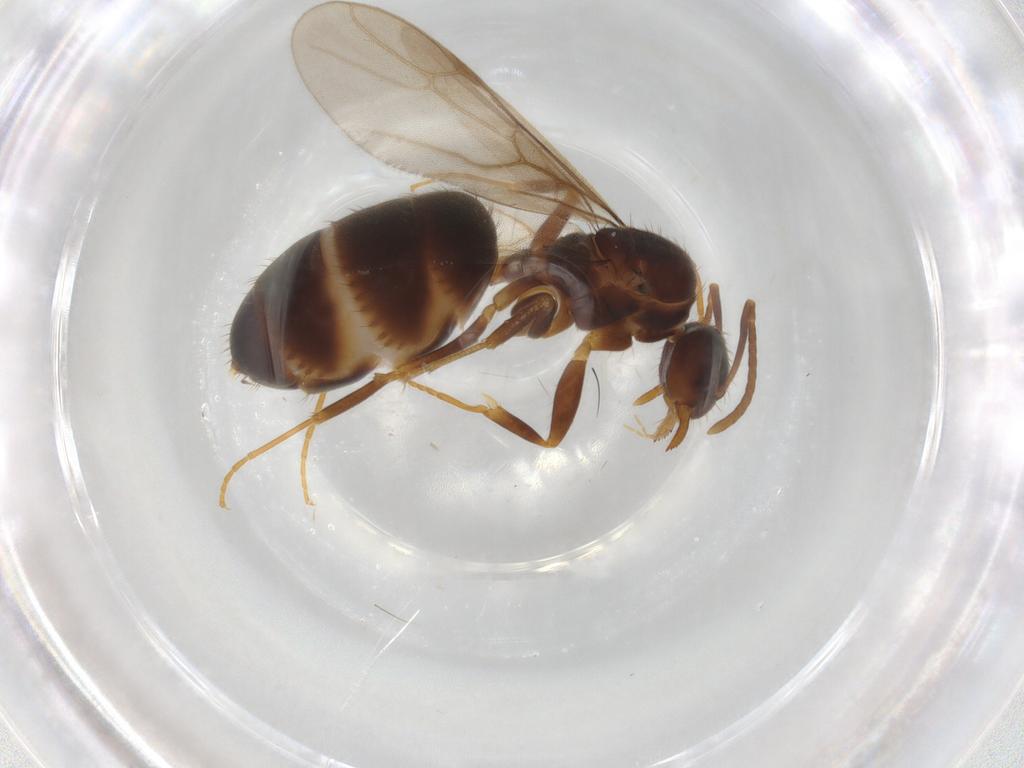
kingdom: Animalia
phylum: Arthropoda
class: Insecta
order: Hymenoptera
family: Formicidae
